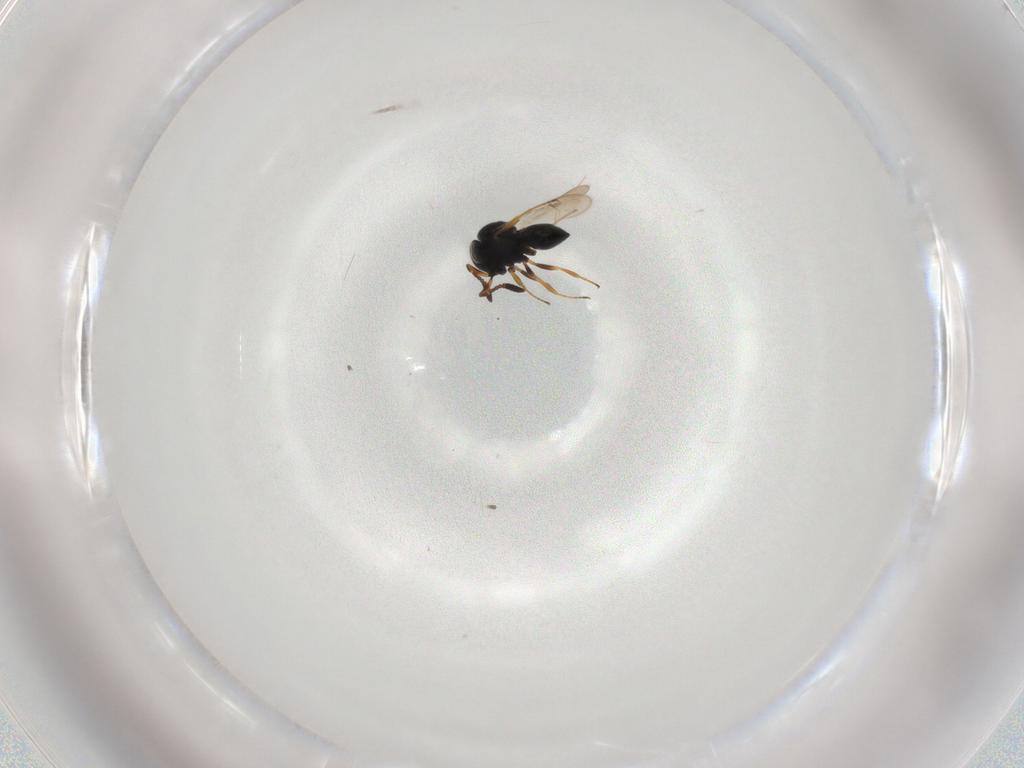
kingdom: Animalia
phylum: Arthropoda
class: Insecta
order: Hymenoptera
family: Scelionidae
